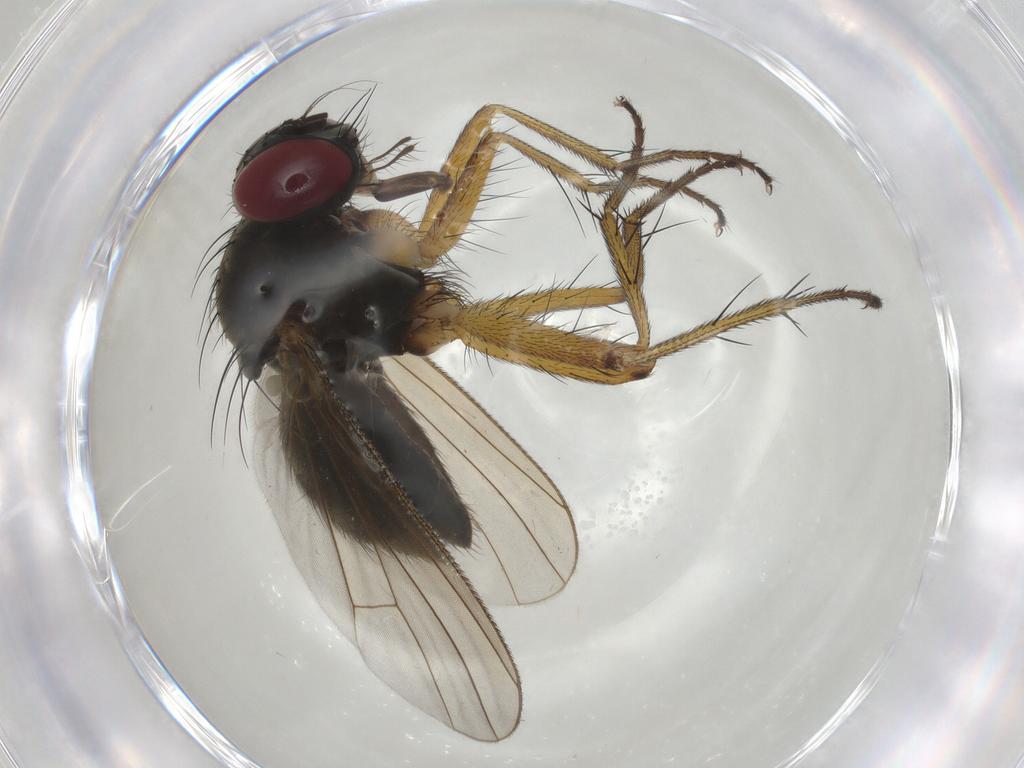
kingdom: Animalia
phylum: Arthropoda
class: Insecta
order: Diptera
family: Muscidae
